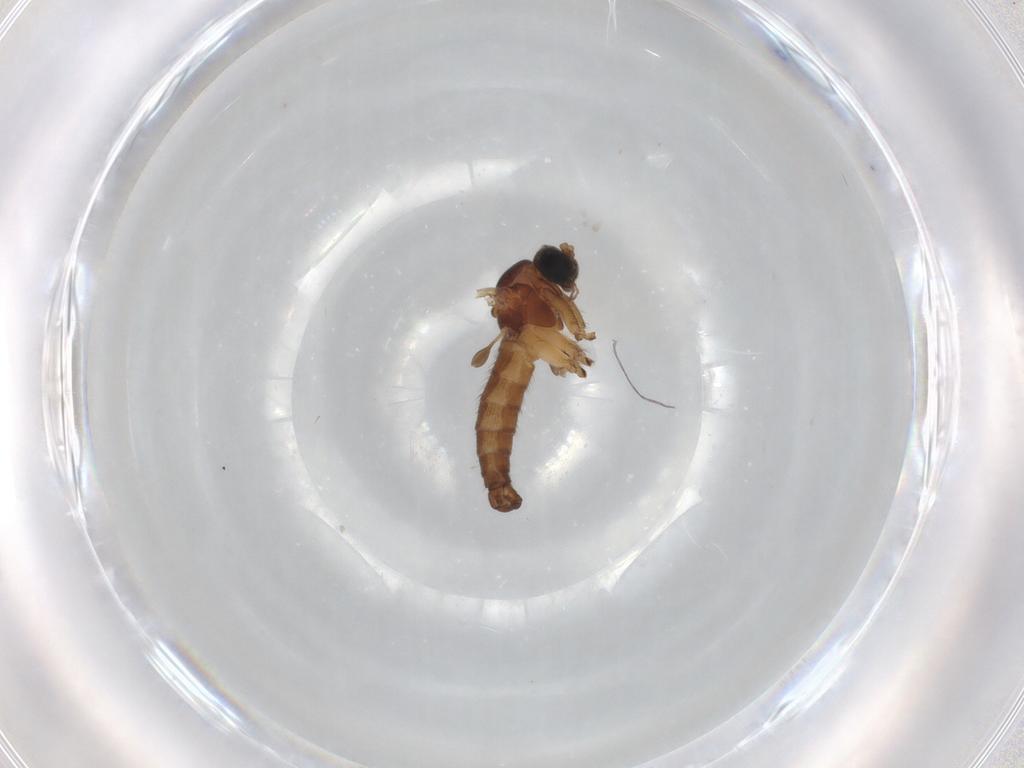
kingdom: Animalia
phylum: Arthropoda
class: Insecta
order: Diptera
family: Sciaridae
